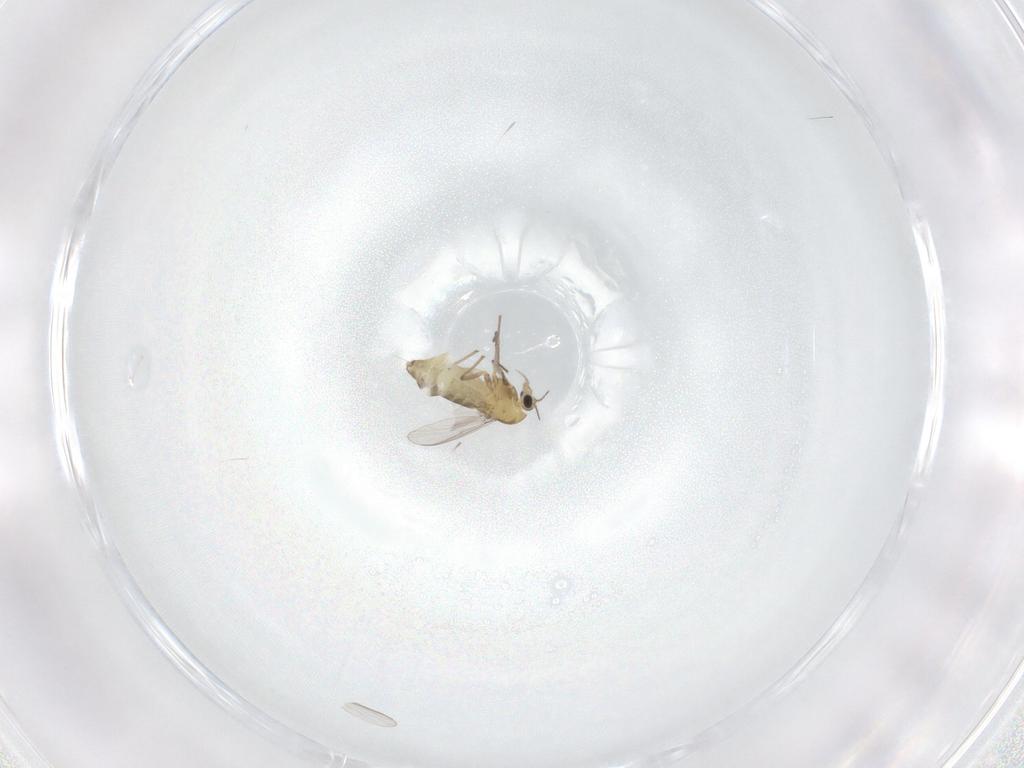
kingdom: Animalia
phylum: Arthropoda
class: Insecta
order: Diptera
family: Chironomidae
